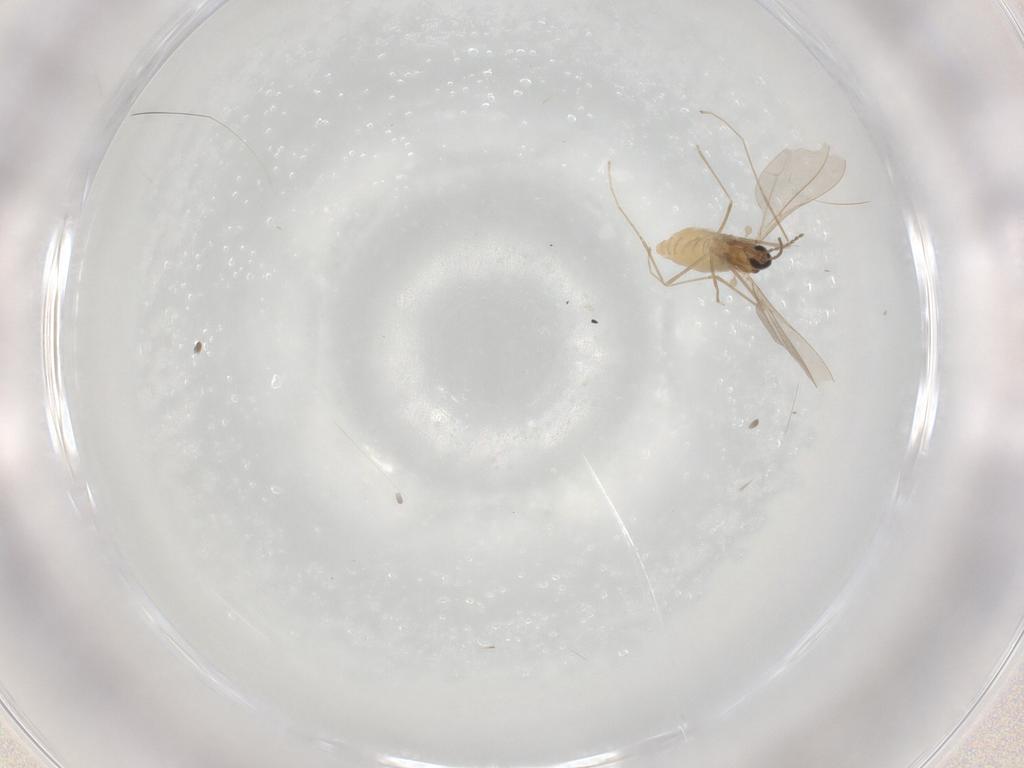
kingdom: Animalia
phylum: Arthropoda
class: Insecta
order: Diptera
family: Cecidomyiidae
